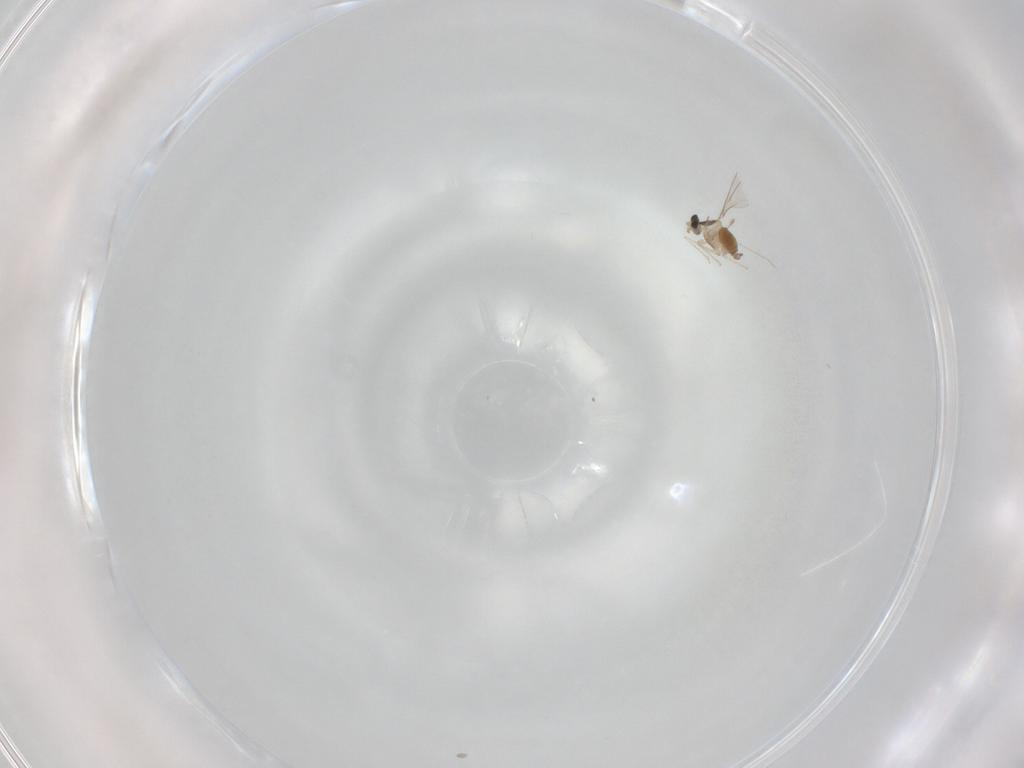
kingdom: Animalia
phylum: Arthropoda
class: Insecta
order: Diptera
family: Cecidomyiidae
